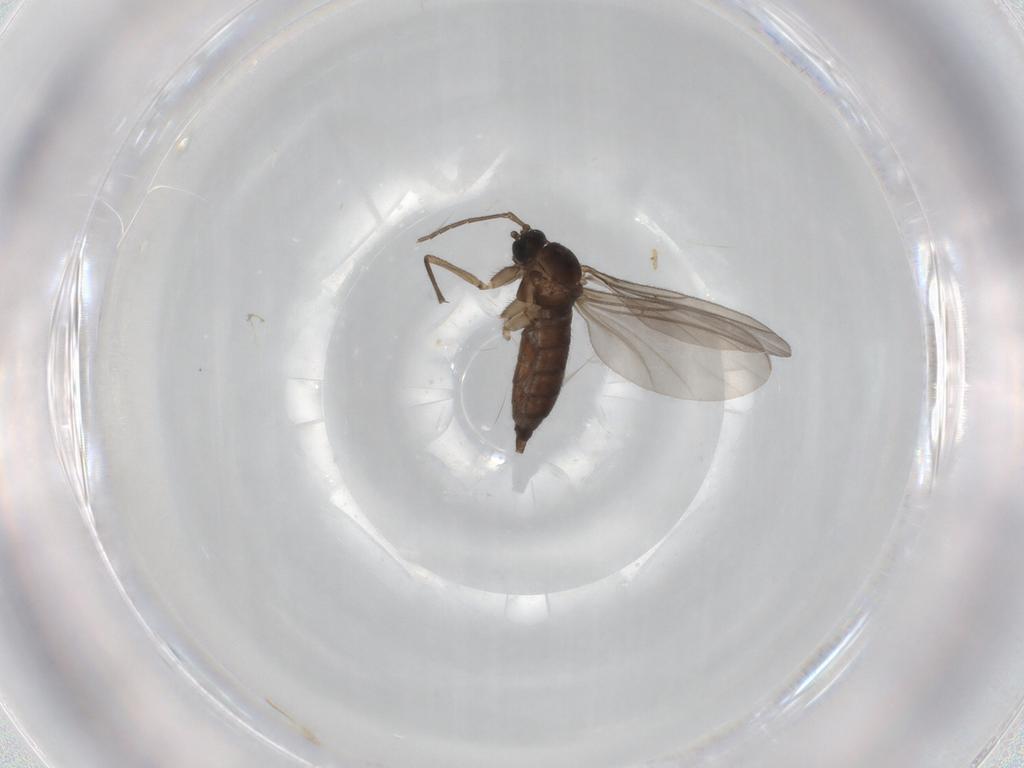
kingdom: Animalia
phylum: Arthropoda
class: Insecta
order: Diptera
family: Sciaridae
